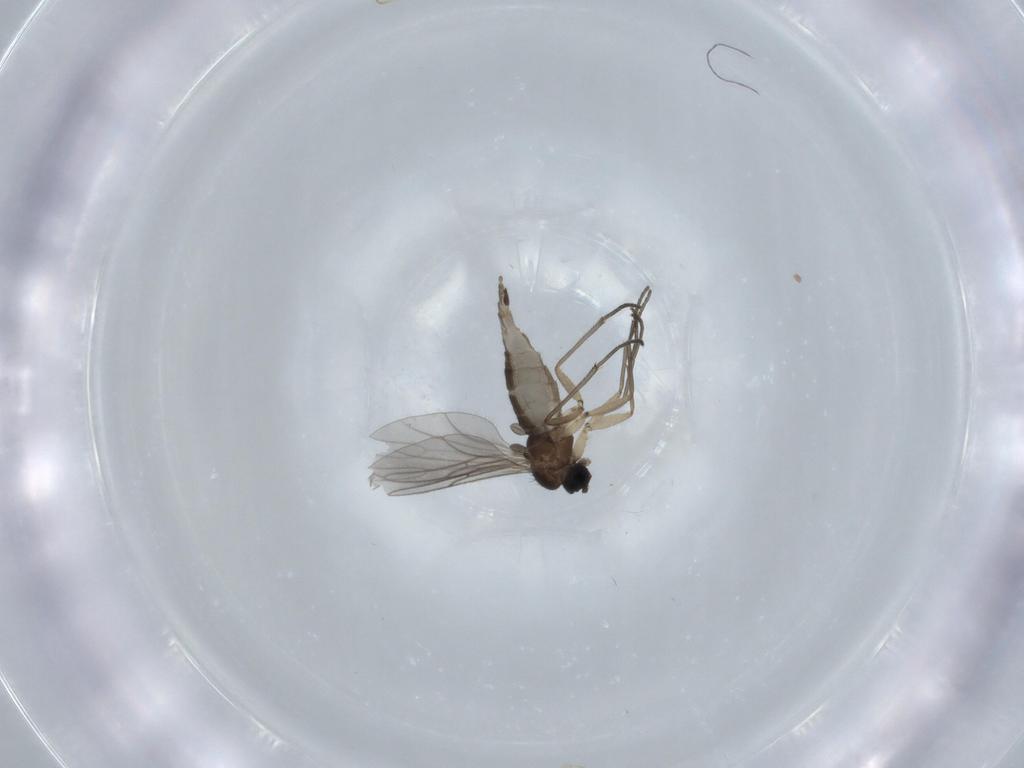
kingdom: Animalia
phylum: Arthropoda
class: Insecta
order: Diptera
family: Sciaridae
